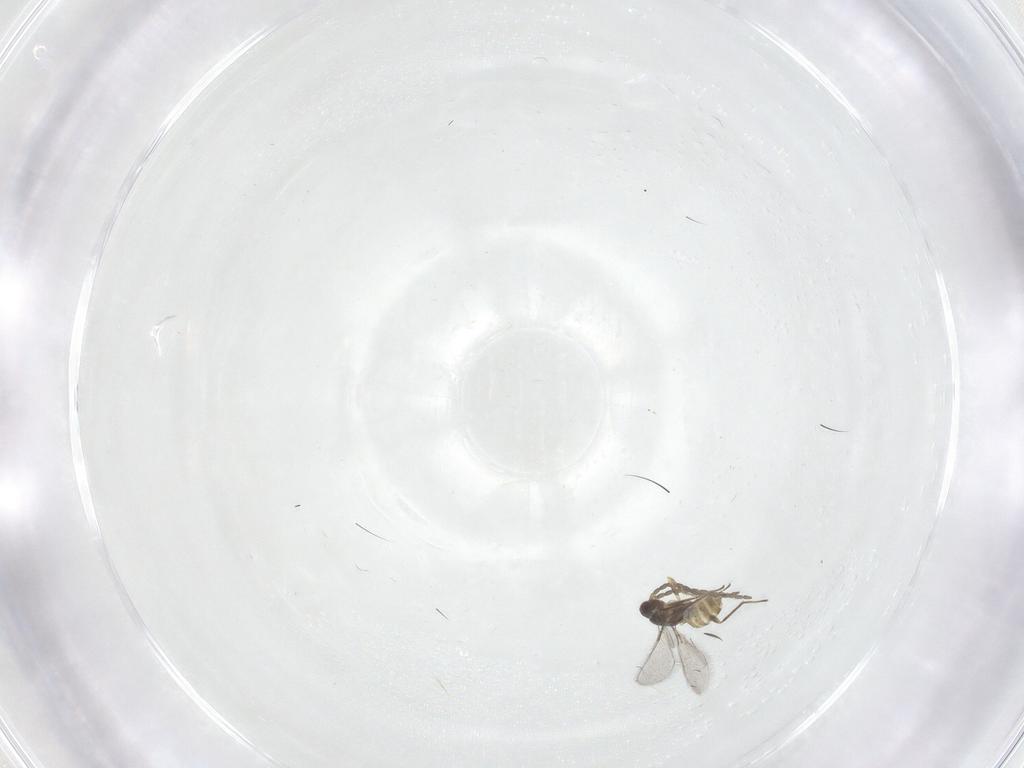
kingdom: Animalia
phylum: Arthropoda
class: Insecta
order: Hymenoptera
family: Mymaridae
